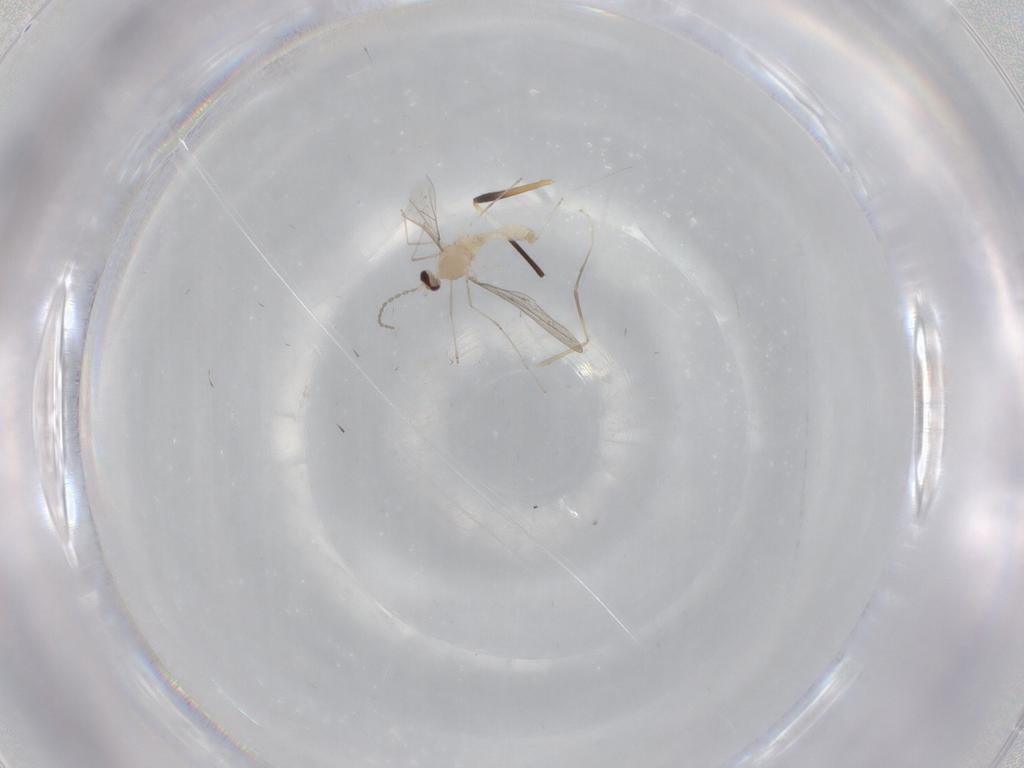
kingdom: Animalia
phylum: Arthropoda
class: Insecta
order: Diptera
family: Cecidomyiidae
